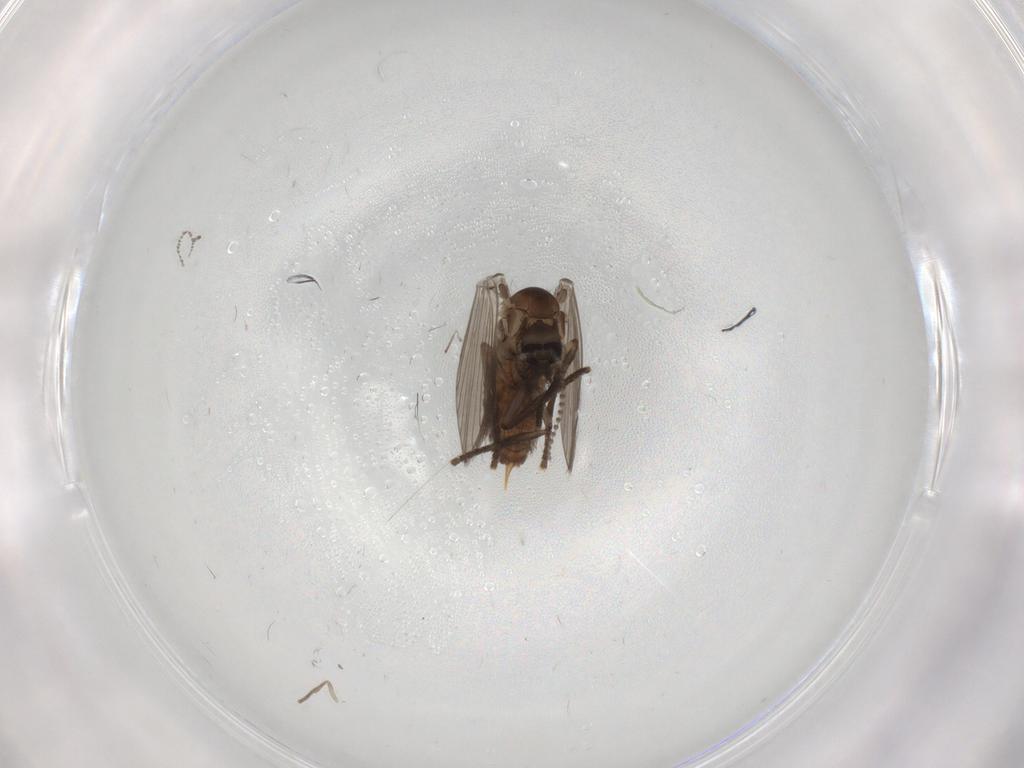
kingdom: Animalia
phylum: Arthropoda
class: Insecta
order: Diptera
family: Psychodidae
